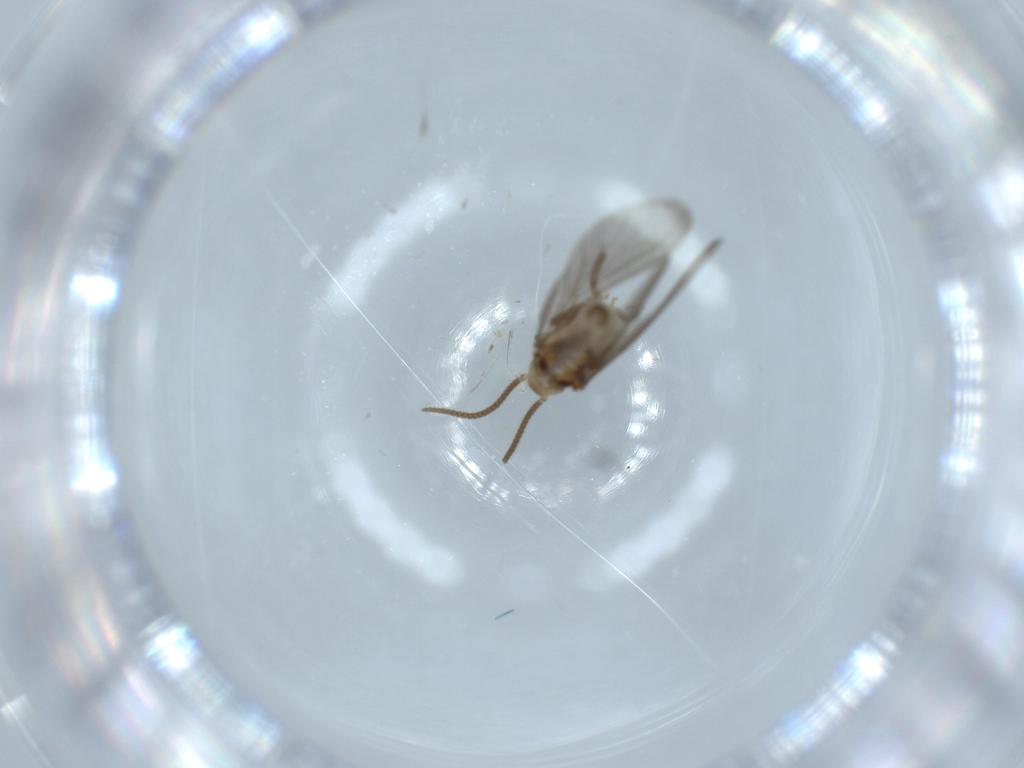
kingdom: Animalia
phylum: Arthropoda
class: Insecta
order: Neuroptera
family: Coniopterygidae
